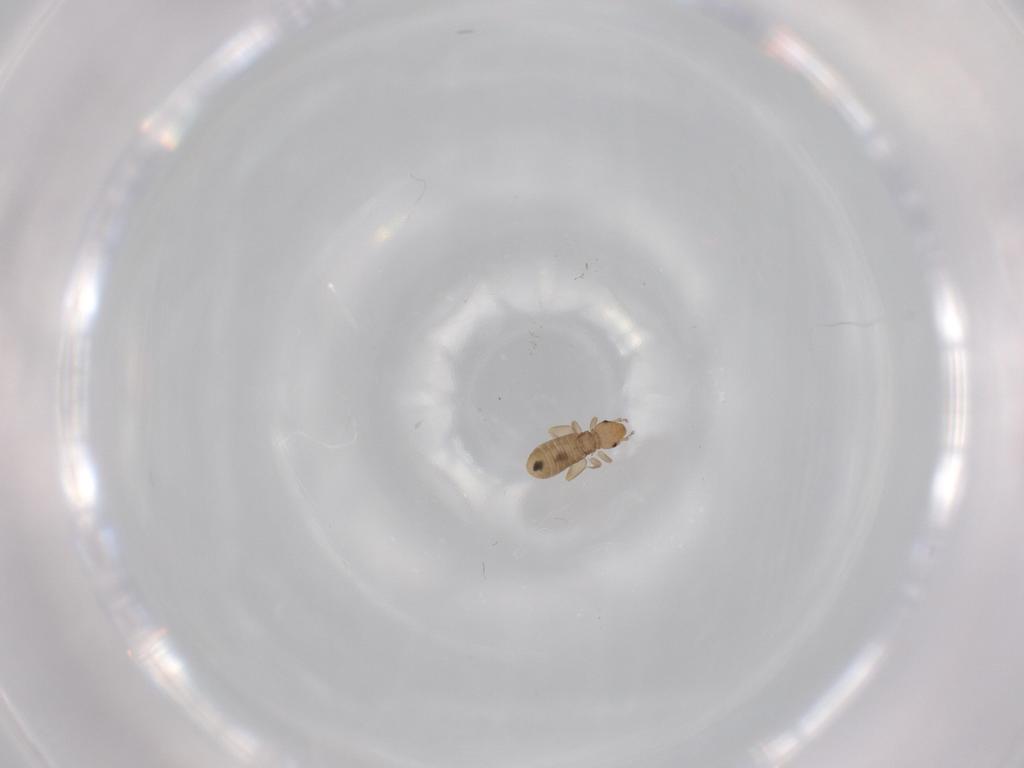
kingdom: Animalia
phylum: Arthropoda
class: Insecta
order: Psocodea
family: Liposcelididae
